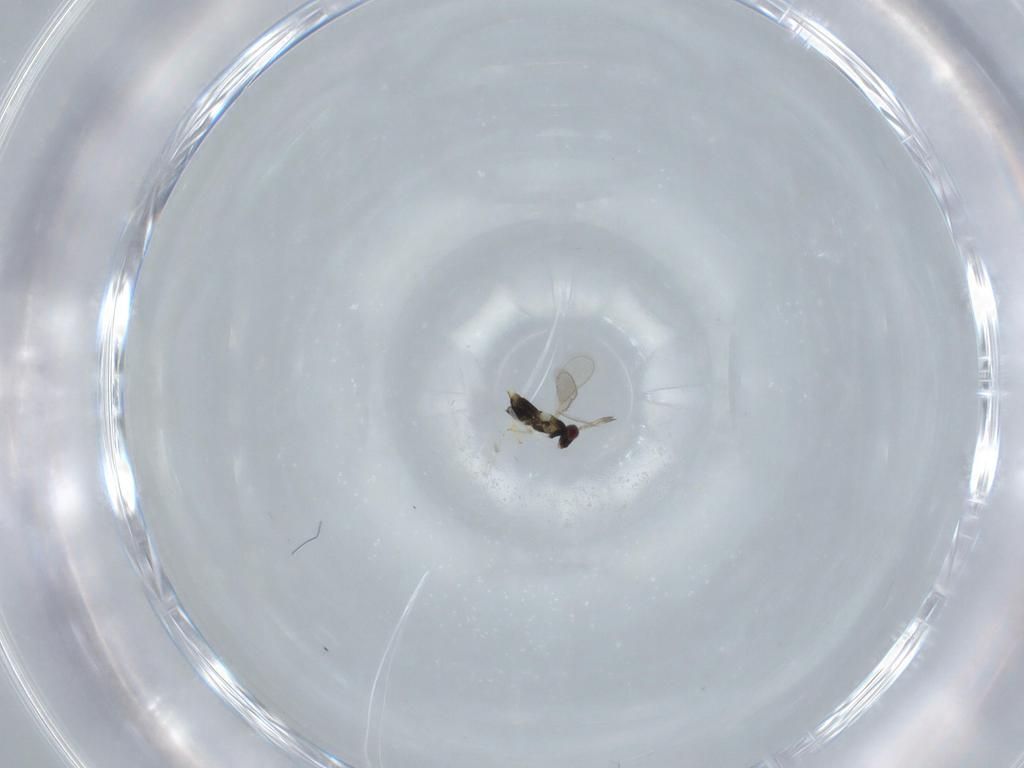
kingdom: Animalia
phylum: Arthropoda
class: Insecta
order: Hymenoptera
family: Aphelinidae
